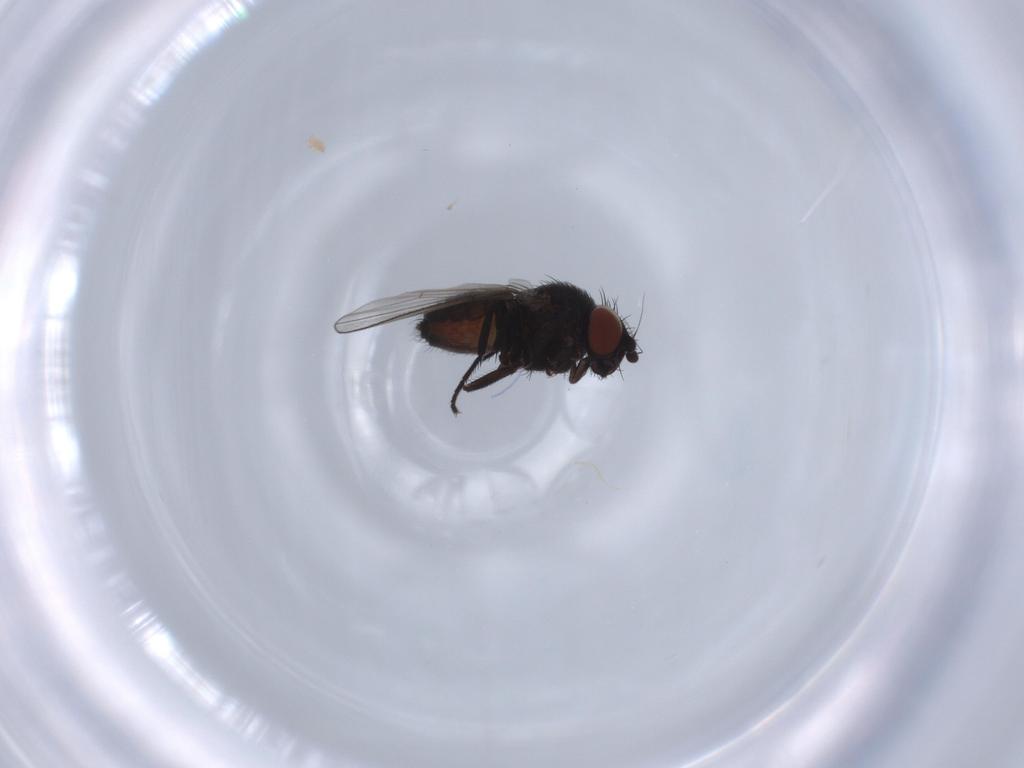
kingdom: Animalia
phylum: Arthropoda
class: Insecta
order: Diptera
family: Milichiidae
